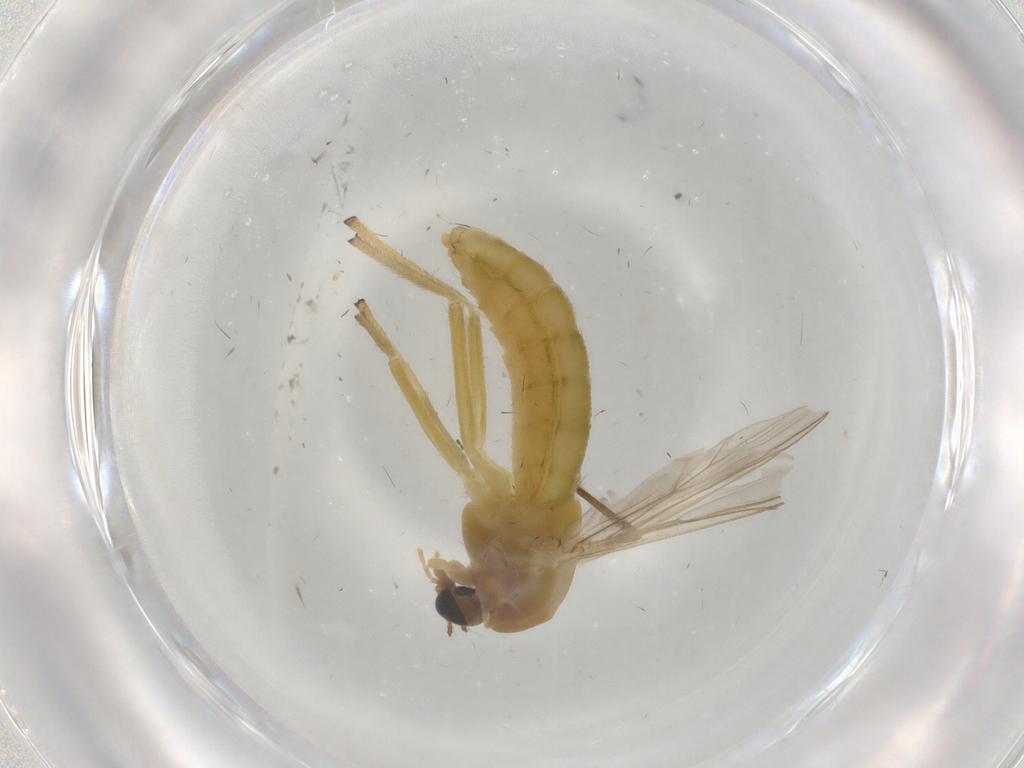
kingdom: Animalia
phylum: Arthropoda
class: Insecta
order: Diptera
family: Chironomidae
